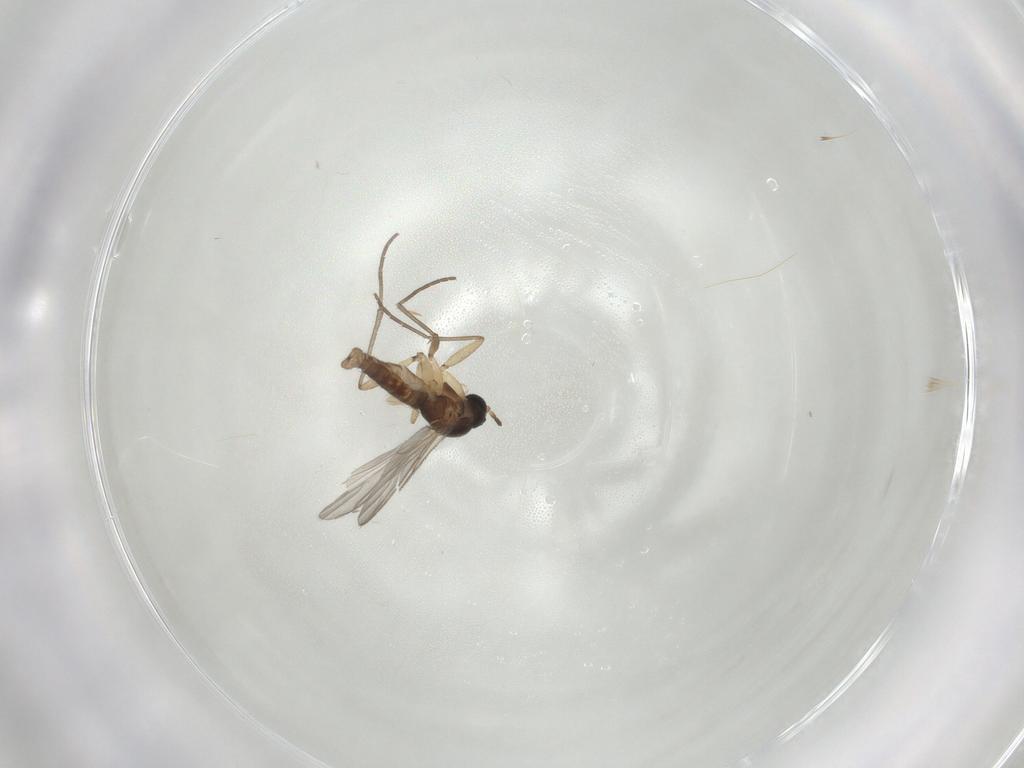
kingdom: Animalia
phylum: Arthropoda
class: Insecta
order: Diptera
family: Sciaridae
